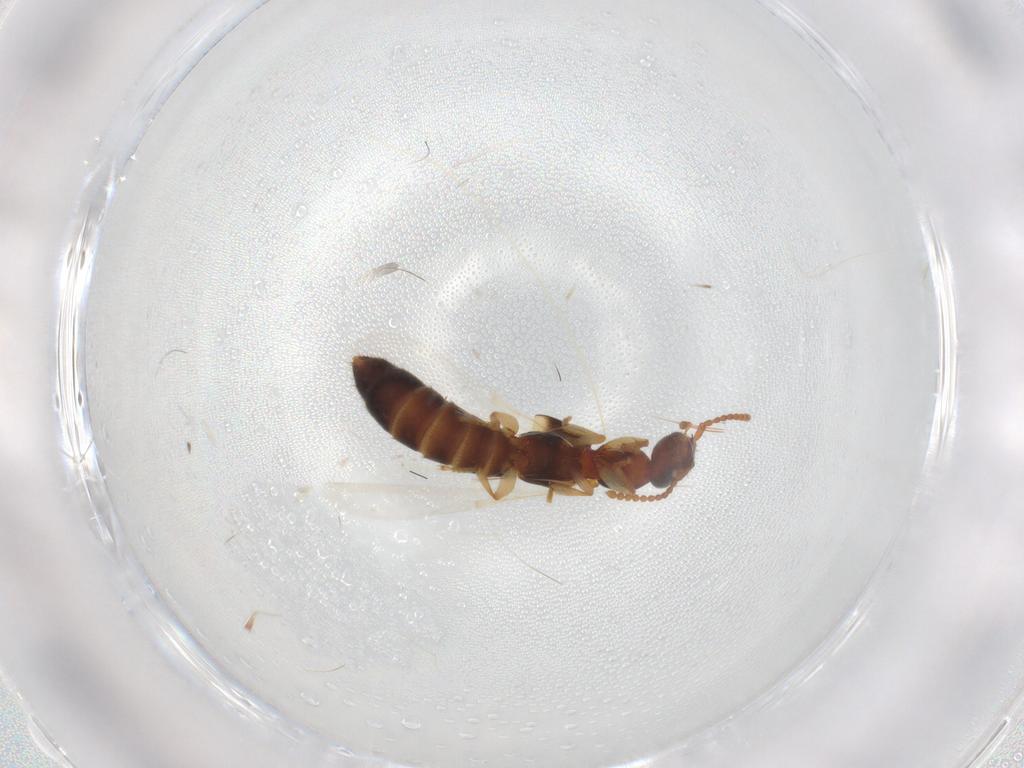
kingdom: Animalia
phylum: Arthropoda
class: Insecta
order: Coleoptera
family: Staphylinidae
